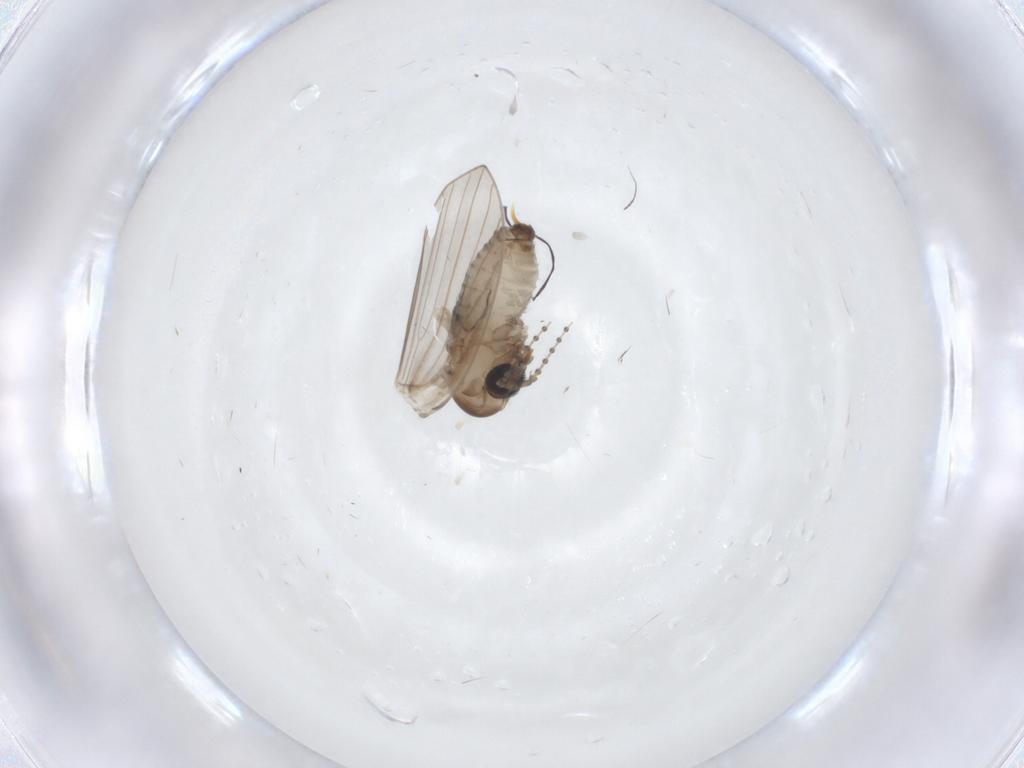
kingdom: Animalia
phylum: Arthropoda
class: Insecta
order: Diptera
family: Psychodidae
